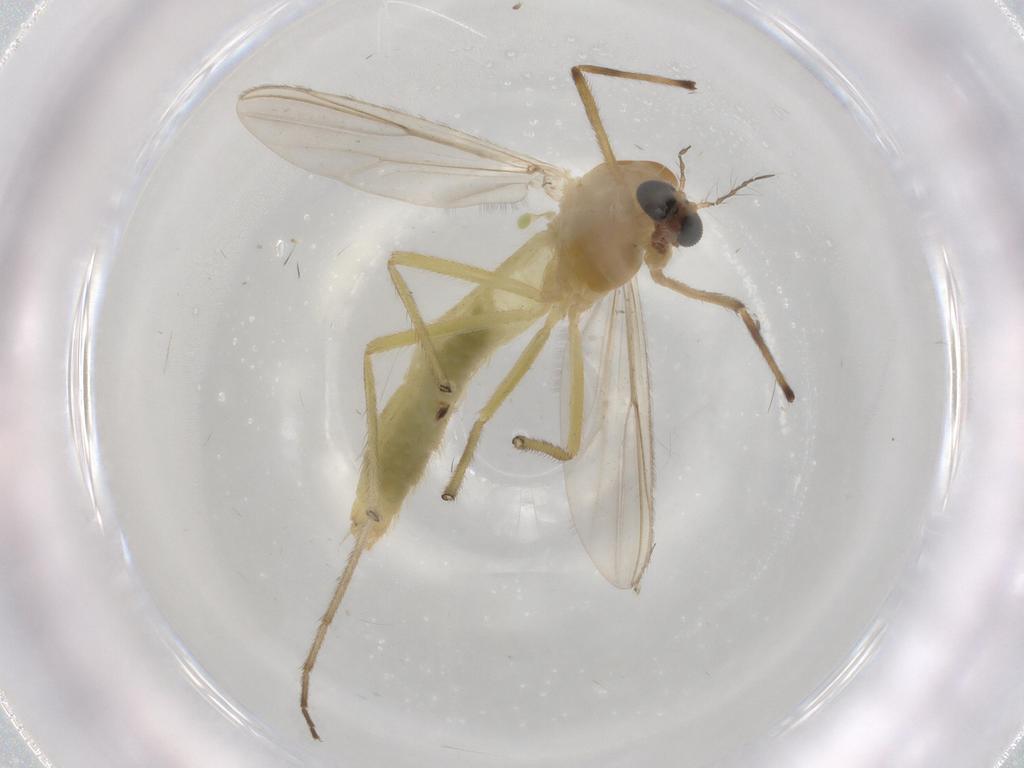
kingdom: Animalia
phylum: Arthropoda
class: Insecta
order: Diptera
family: Chironomidae
